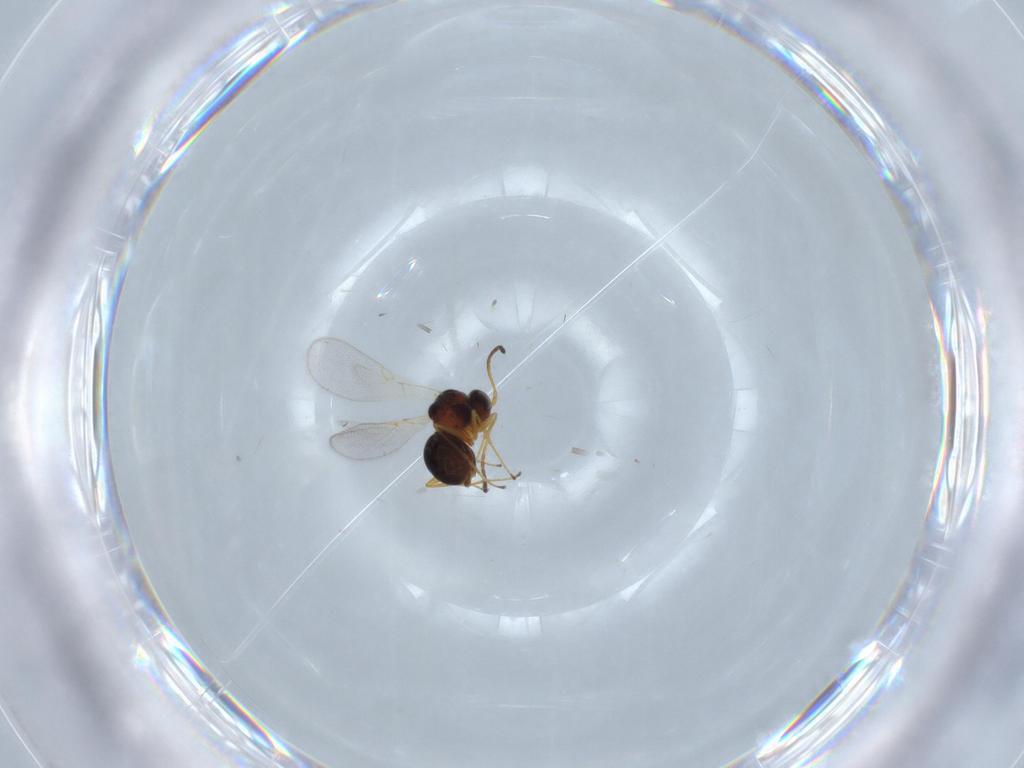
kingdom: Animalia
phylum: Arthropoda
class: Insecta
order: Hymenoptera
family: Figitidae
